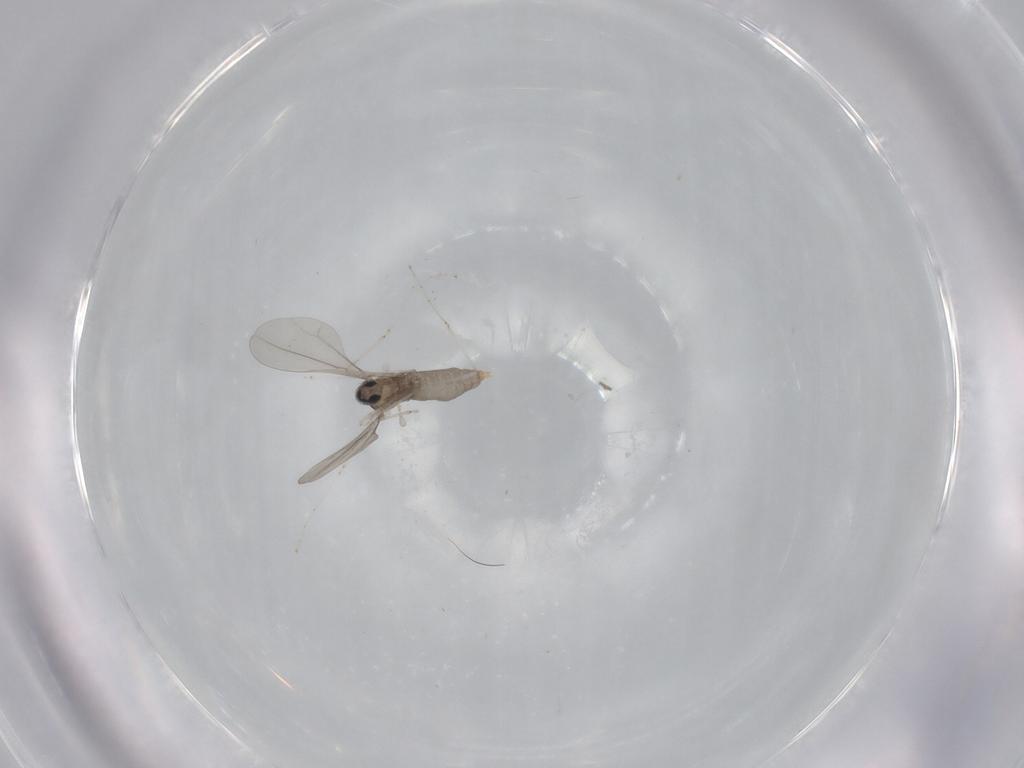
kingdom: Animalia
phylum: Arthropoda
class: Insecta
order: Diptera
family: Cecidomyiidae
